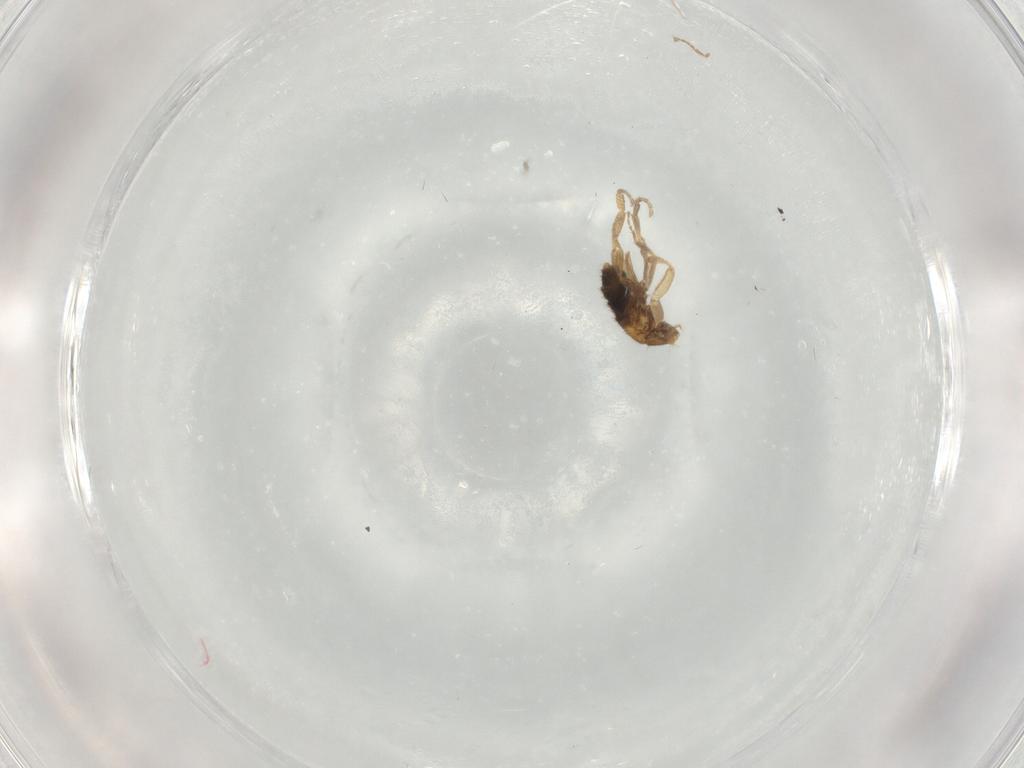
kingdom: Animalia
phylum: Arthropoda
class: Insecta
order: Diptera
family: Phoridae
